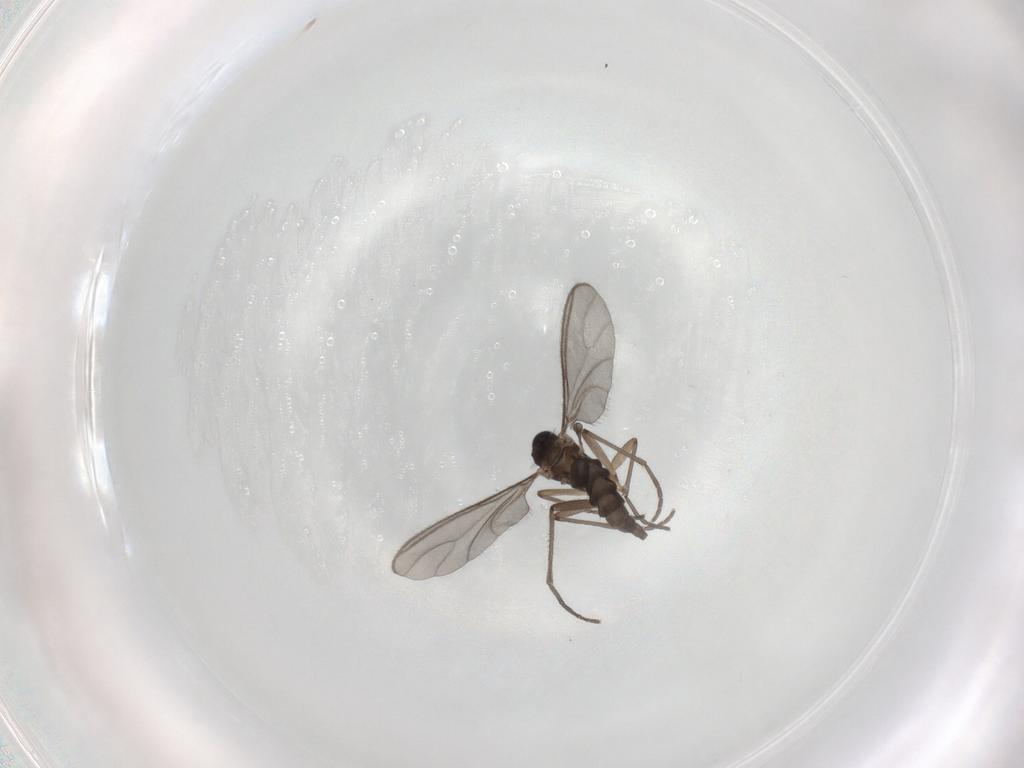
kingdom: Animalia
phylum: Arthropoda
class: Insecta
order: Diptera
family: Sciaridae
